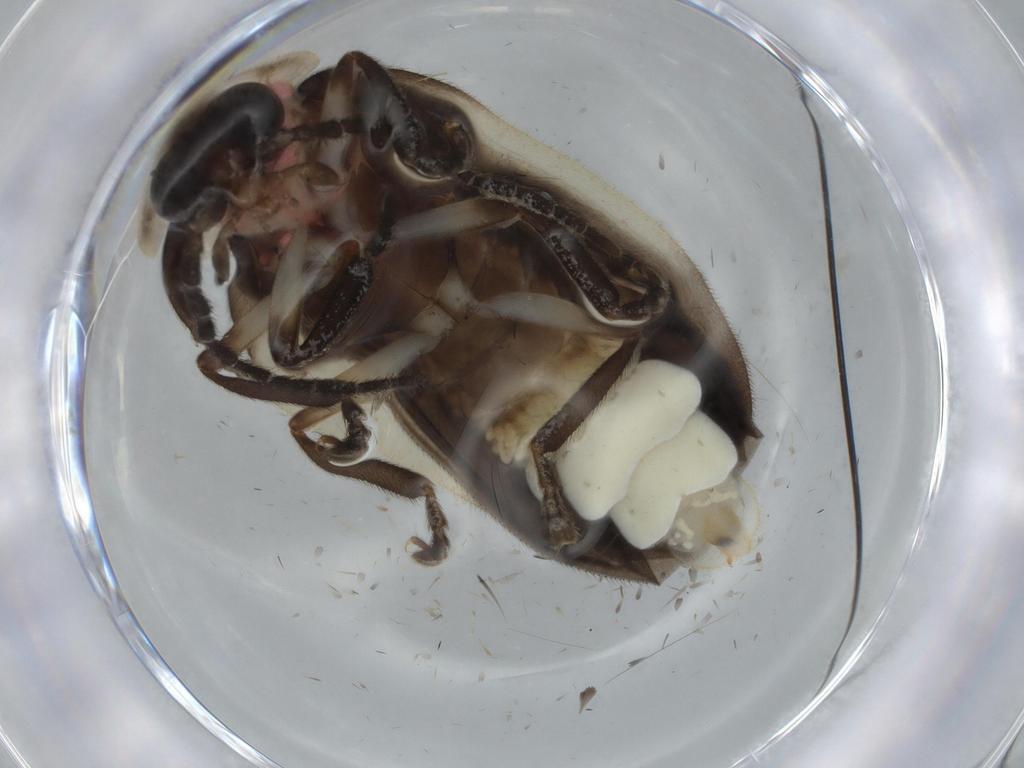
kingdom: Animalia
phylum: Arthropoda
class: Insecta
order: Coleoptera
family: Lampyridae
